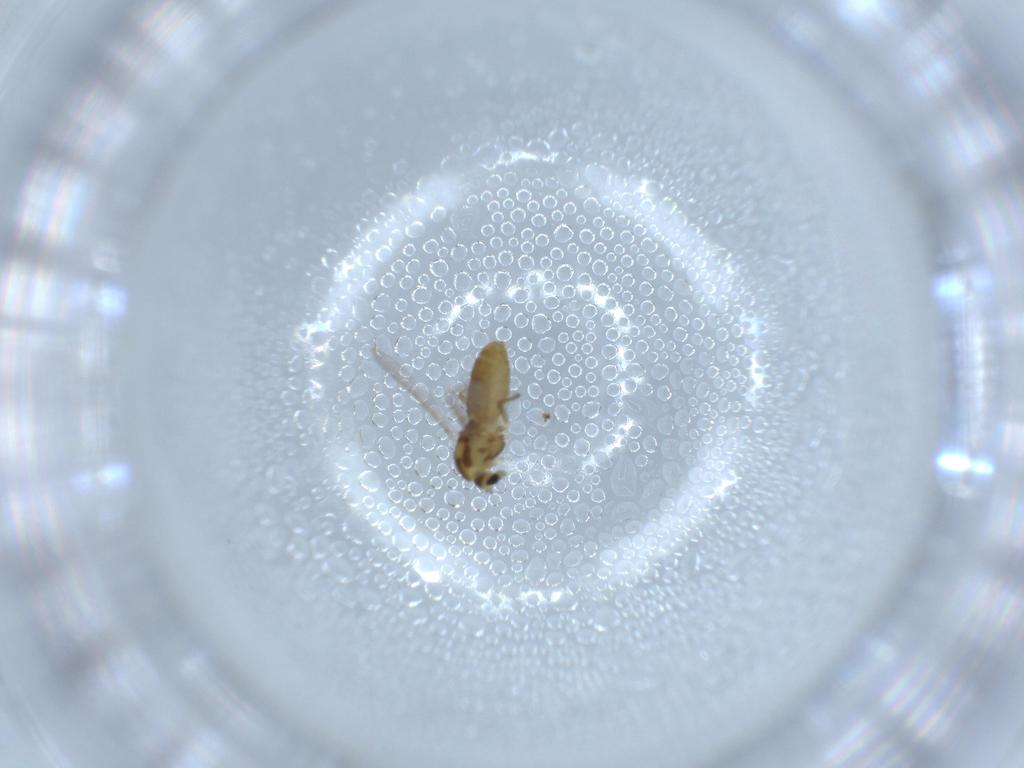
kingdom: Animalia
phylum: Arthropoda
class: Insecta
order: Diptera
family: Chironomidae
